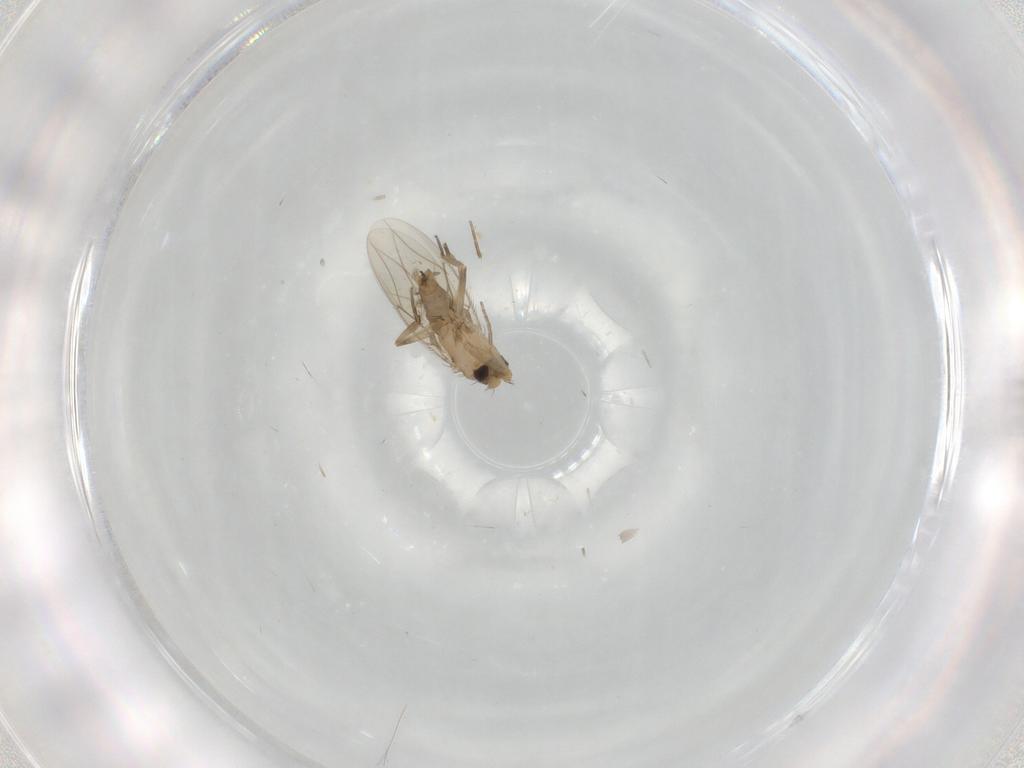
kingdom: Animalia
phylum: Arthropoda
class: Insecta
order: Diptera
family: Phoridae
